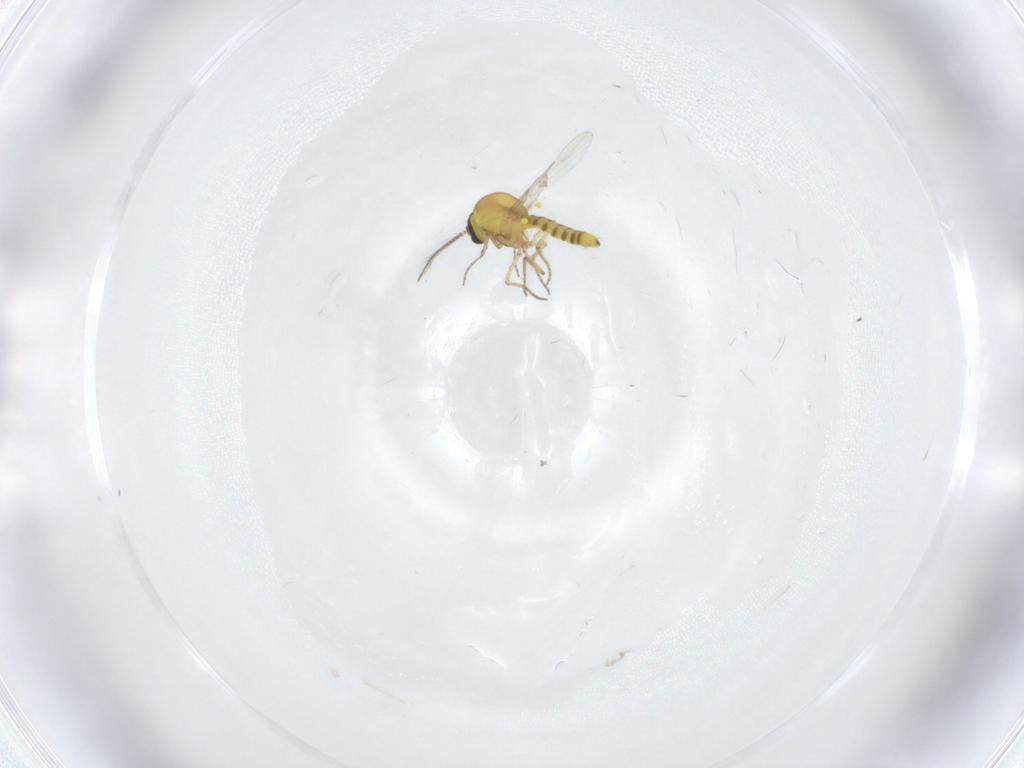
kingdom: Animalia
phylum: Arthropoda
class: Insecta
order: Diptera
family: Ceratopogonidae
